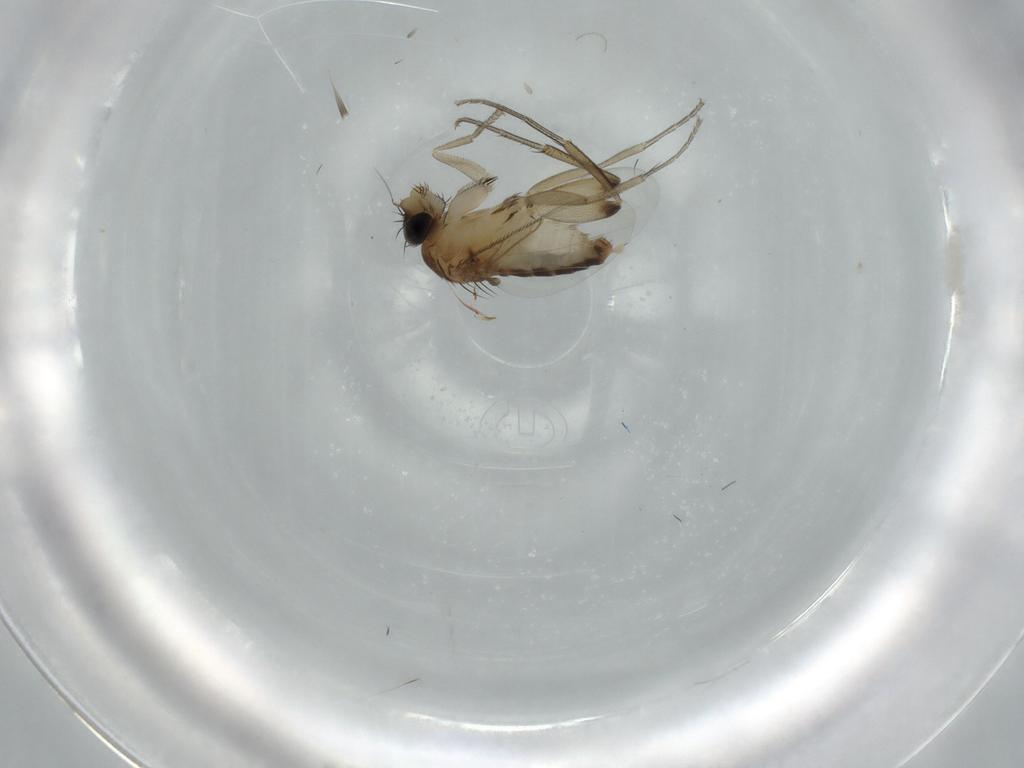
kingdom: Animalia
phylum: Arthropoda
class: Insecta
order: Diptera
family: Phoridae
